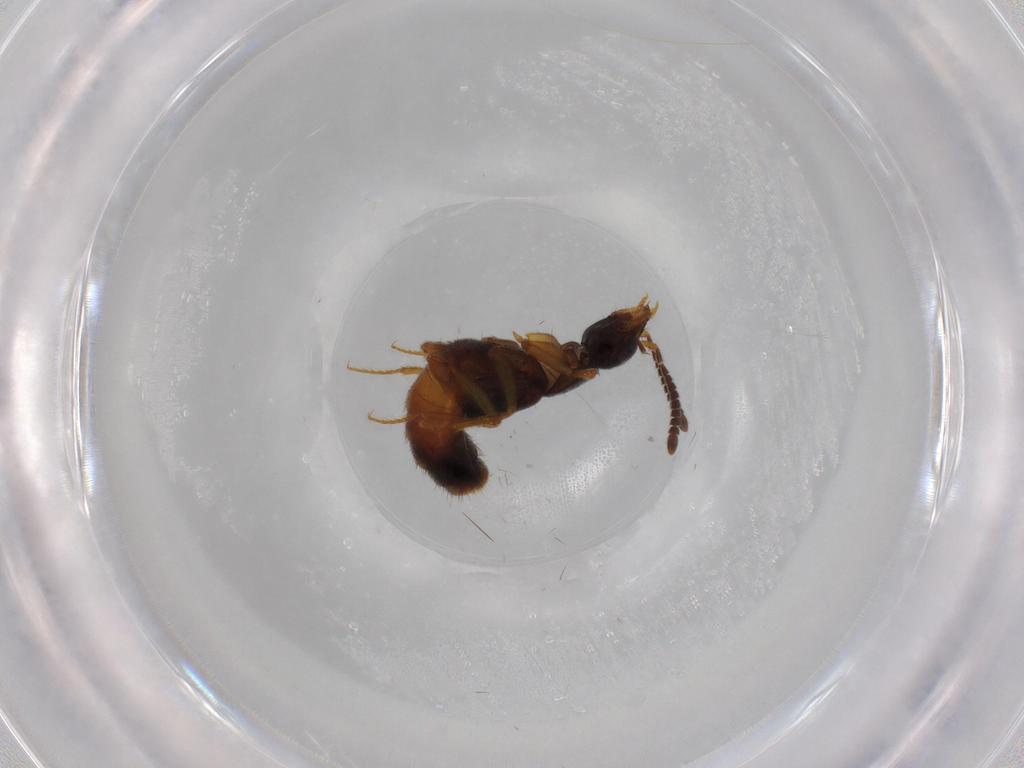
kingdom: Animalia
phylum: Arthropoda
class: Insecta
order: Coleoptera
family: Staphylinidae
